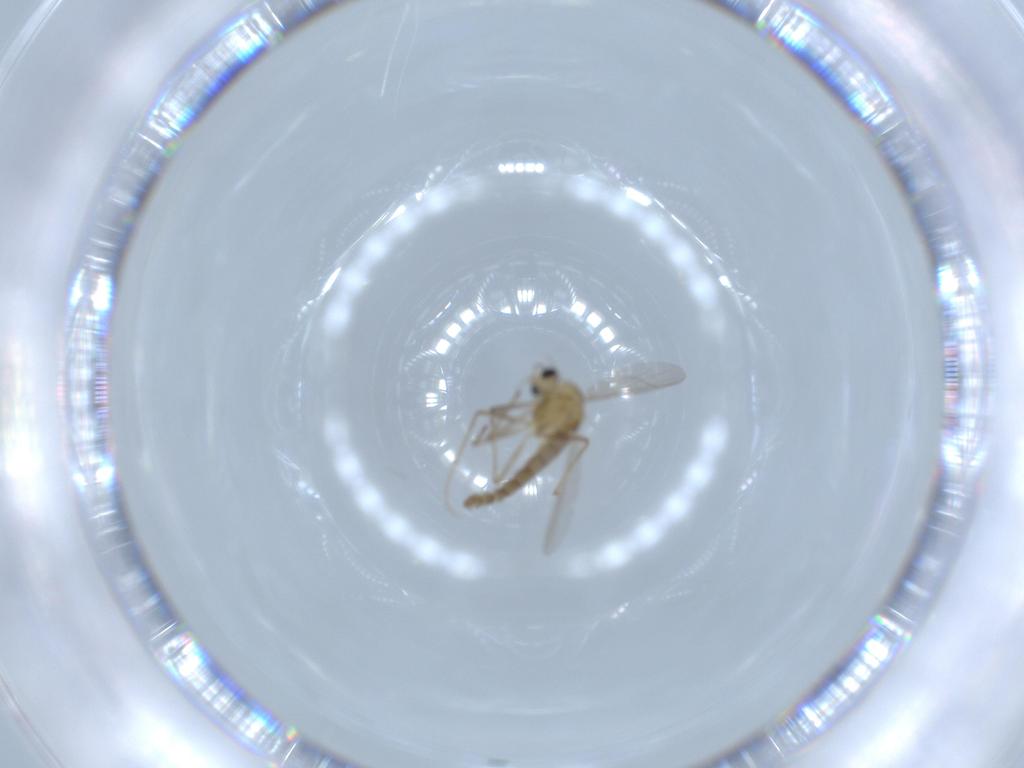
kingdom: Animalia
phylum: Arthropoda
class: Insecta
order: Diptera
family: Chironomidae
